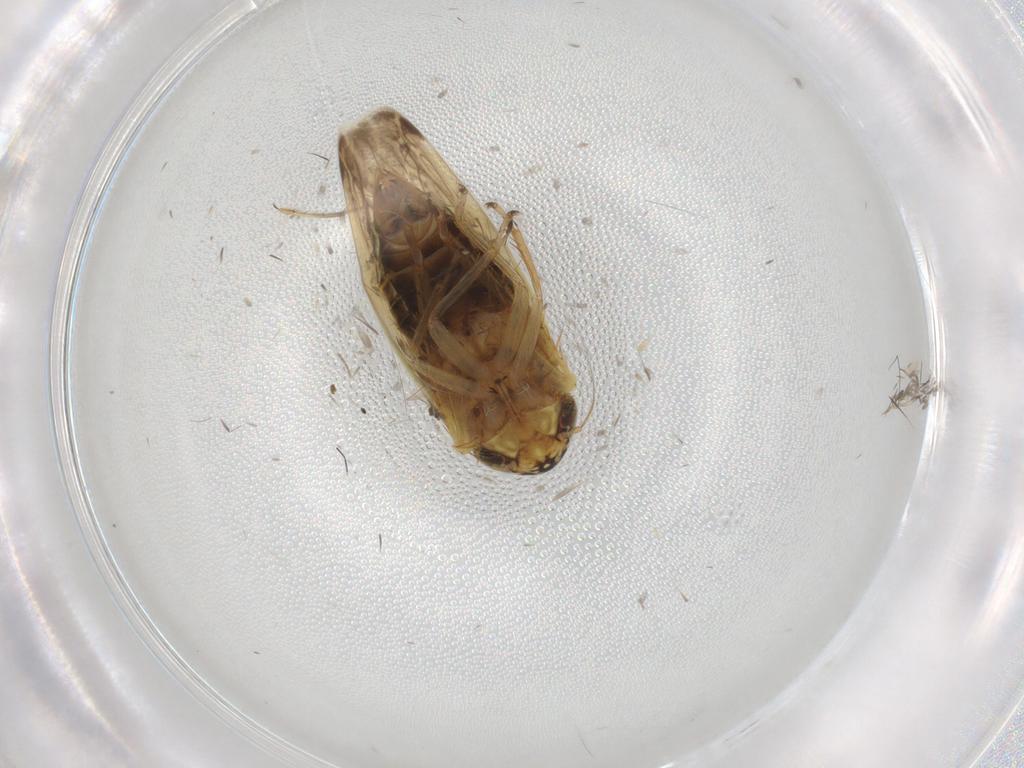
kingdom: Animalia
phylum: Arthropoda
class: Insecta
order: Hemiptera
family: Cicadellidae
